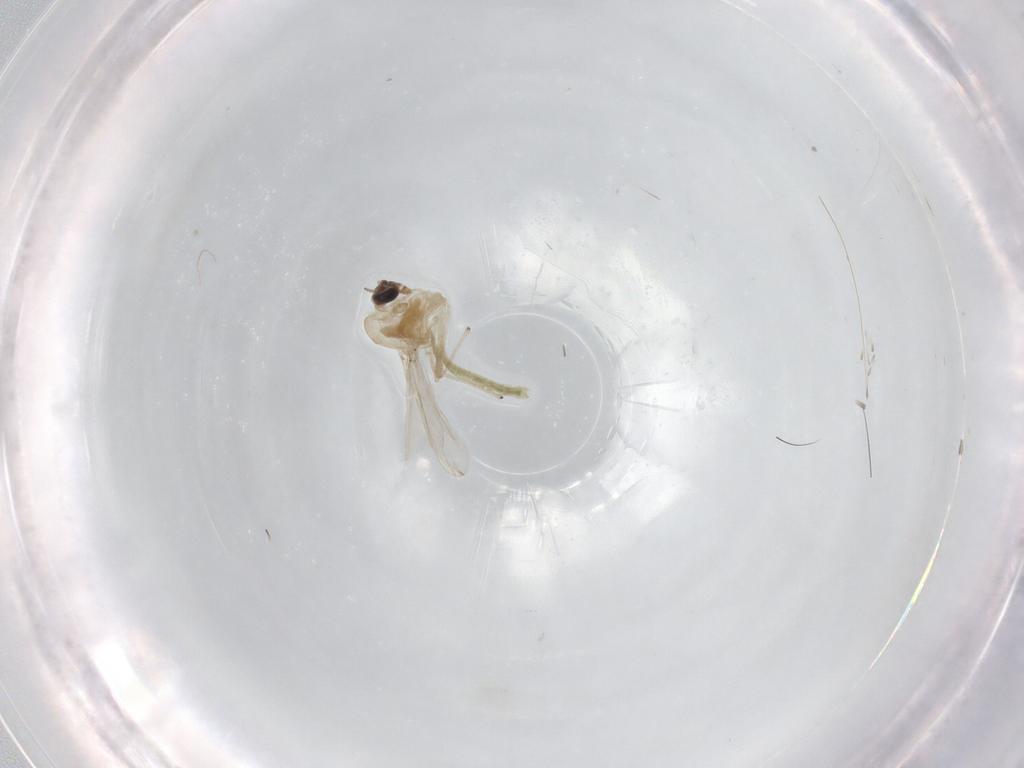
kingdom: Animalia
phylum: Arthropoda
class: Insecta
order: Diptera
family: Chironomidae
